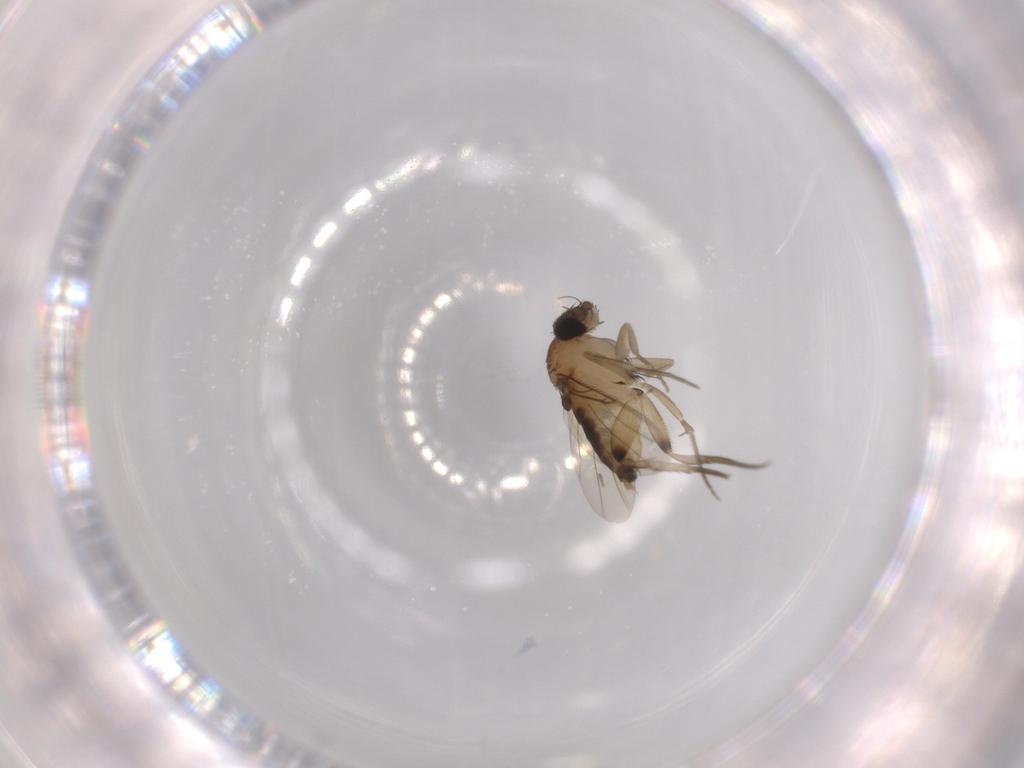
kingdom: Animalia
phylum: Arthropoda
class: Insecta
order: Diptera
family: Phoridae
